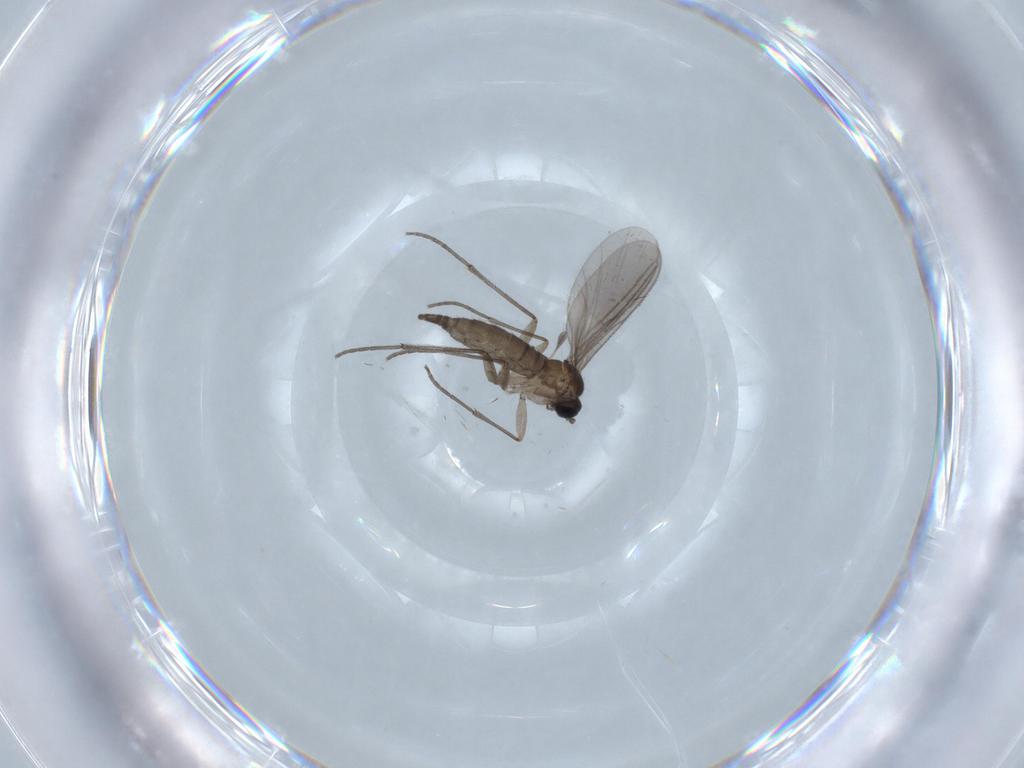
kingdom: Animalia
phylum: Arthropoda
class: Insecta
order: Diptera
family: Sciaridae
